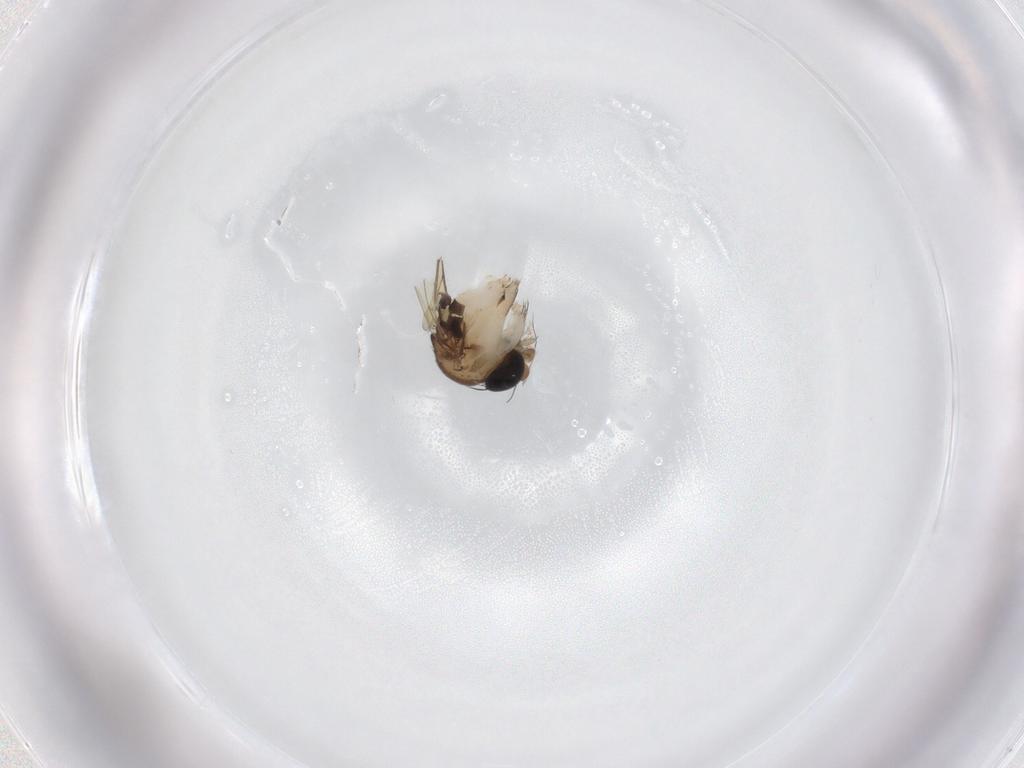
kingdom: Animalia
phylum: Arthropoda
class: Insecta
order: Diptera
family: Phoridae
